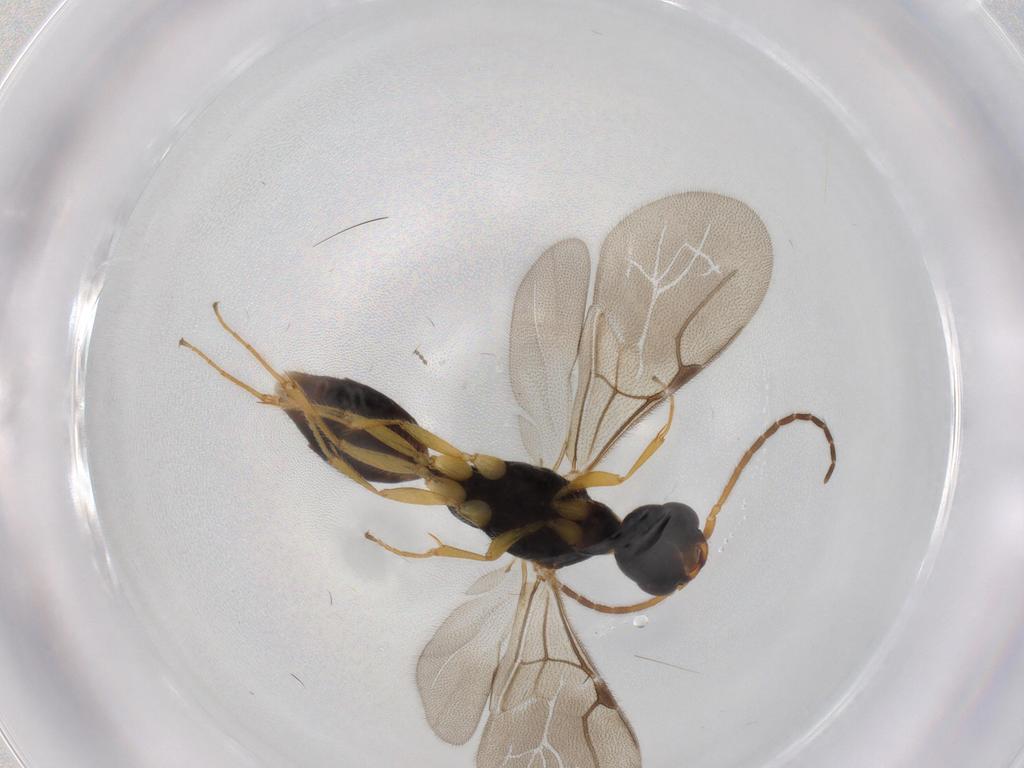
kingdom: Animalia
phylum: Arthropoda
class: Insecta
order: Hymenoptera
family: Bethylidae
